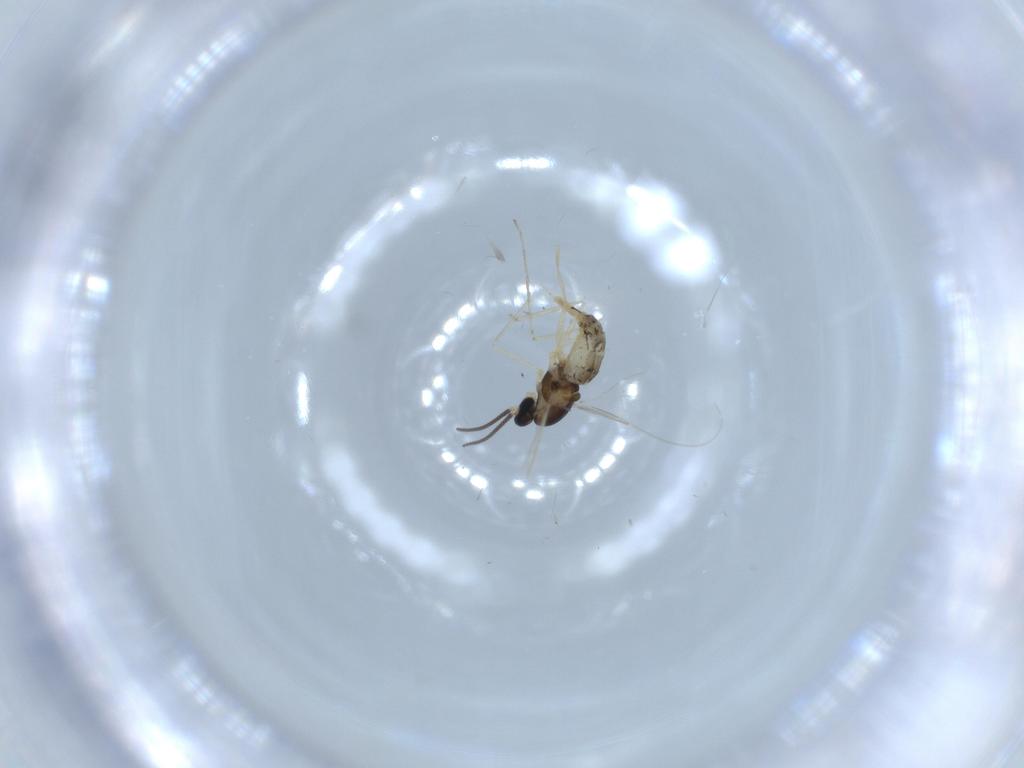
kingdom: Animalia
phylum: Arthropoda
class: Insecta
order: Diptera
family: Cecidomyiidae
